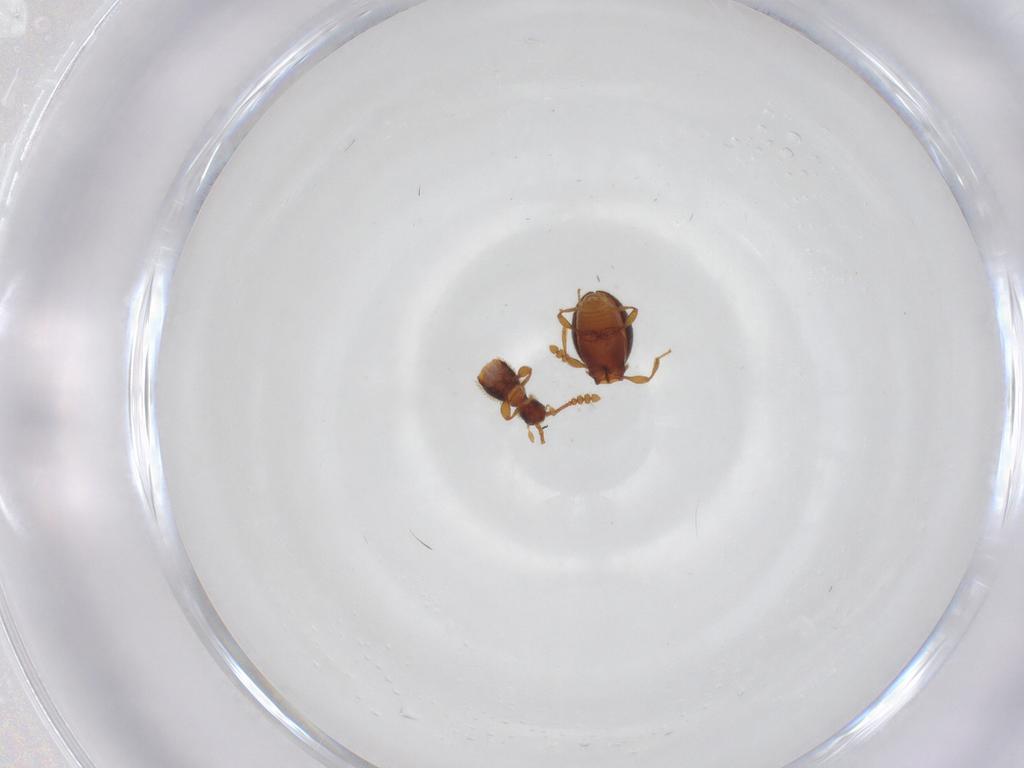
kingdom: Animalia
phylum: Arthropoda
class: Insecta
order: Coleoptera
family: Staphylinidae
